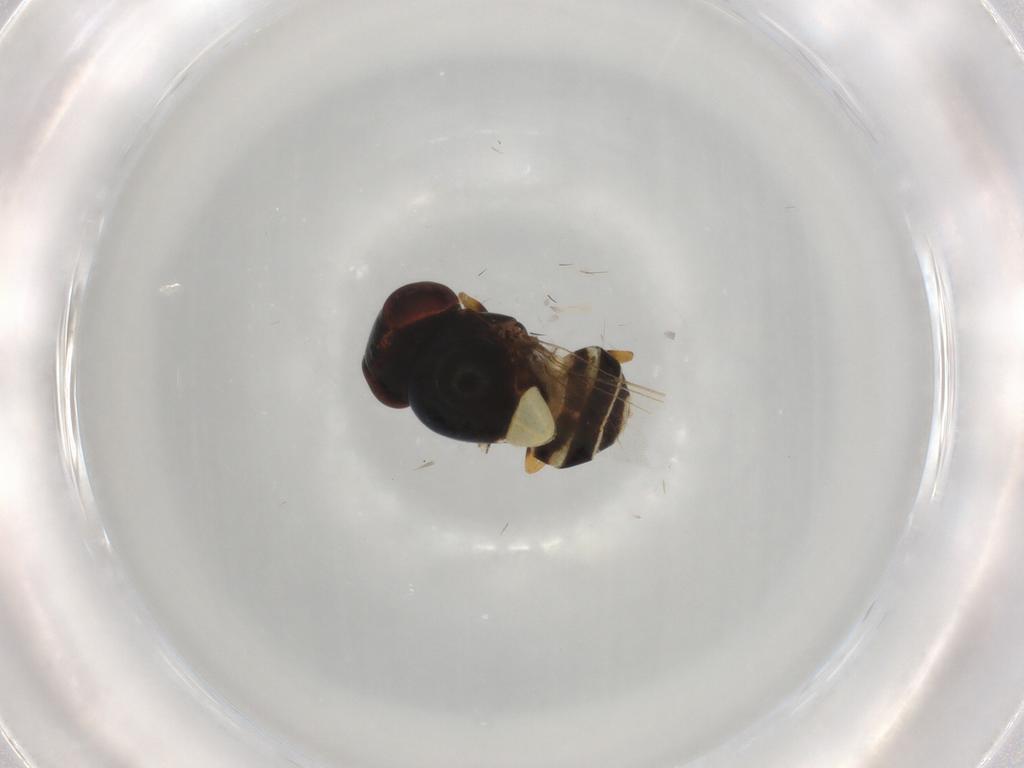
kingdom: Animalia
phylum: Arthropoda
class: Insecta
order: Diptera
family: Chloropidae
